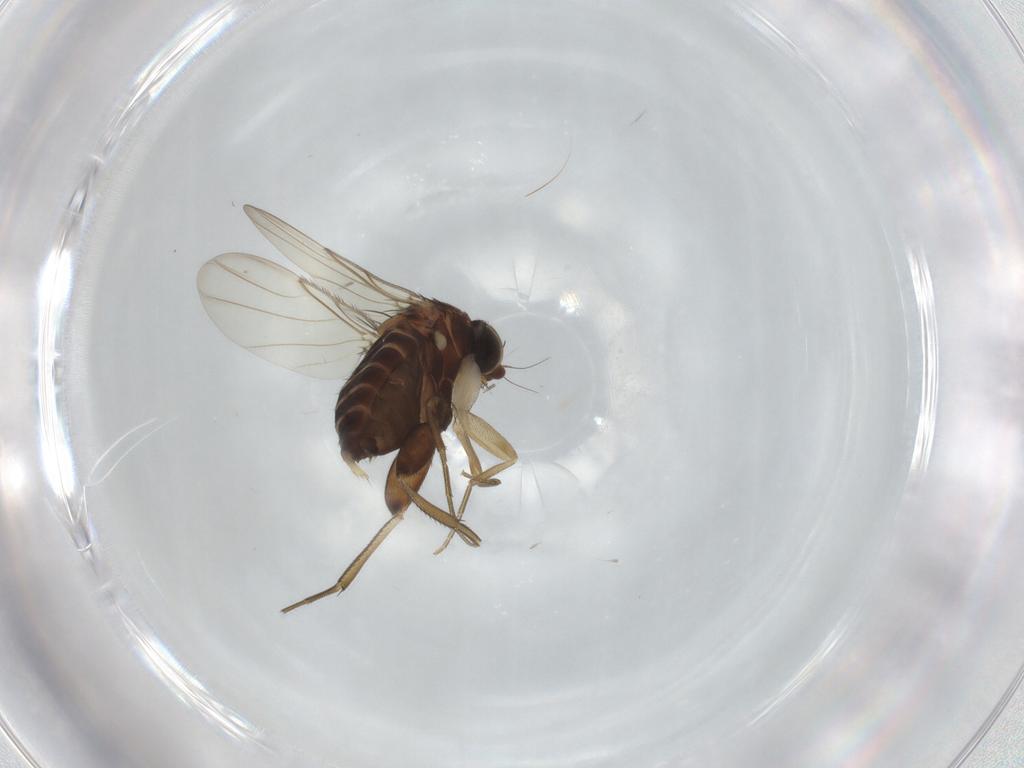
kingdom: Animalia
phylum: Arthropoda
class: Insecta
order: Diptera
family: Phoridae
